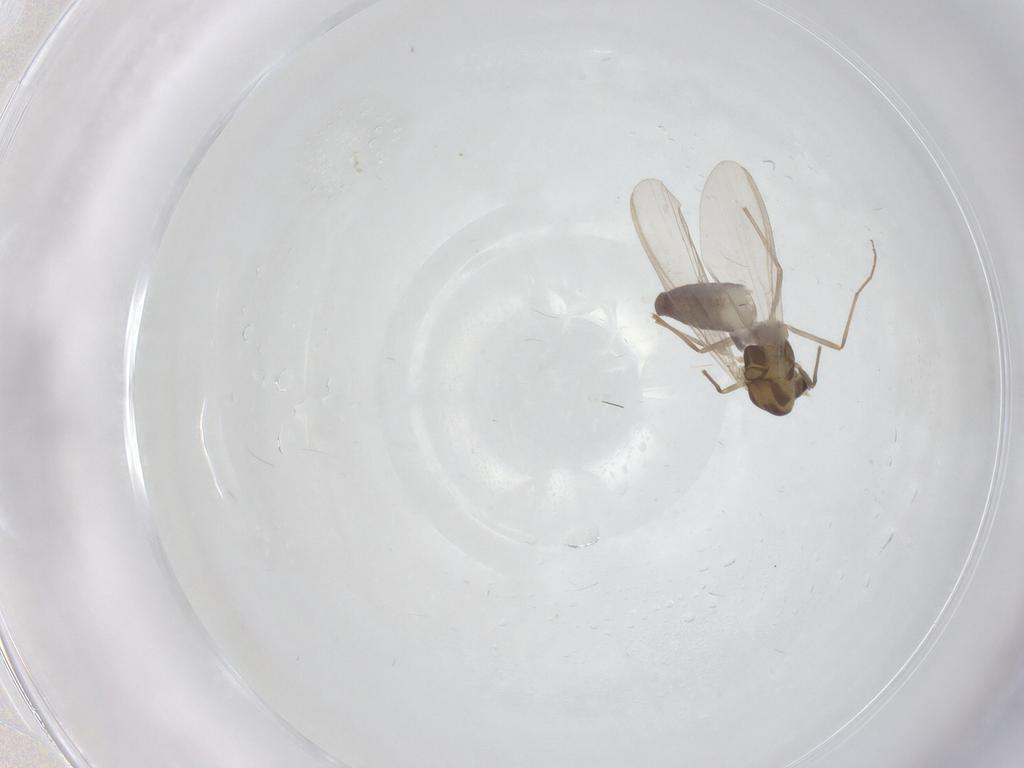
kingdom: Animalia
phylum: Arthropoda
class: Insecta
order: Diptera
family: Chironomidae
